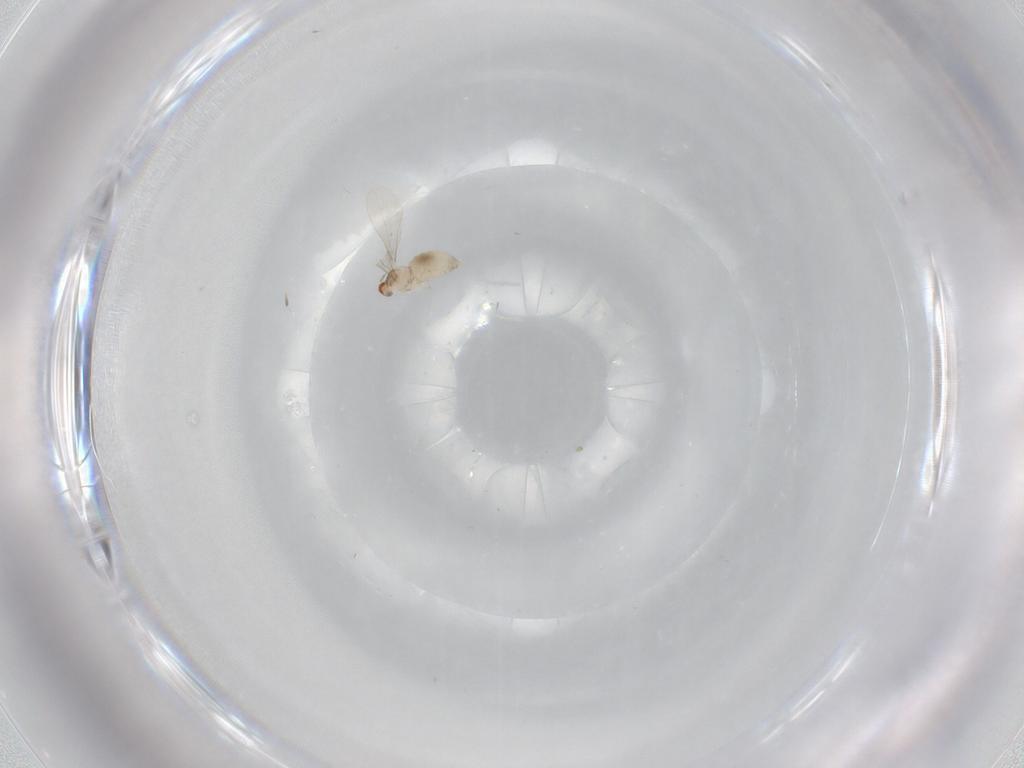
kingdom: Animalia
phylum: Arthropoda
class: Insecta
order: Diptera
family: Cecidomyiidae
